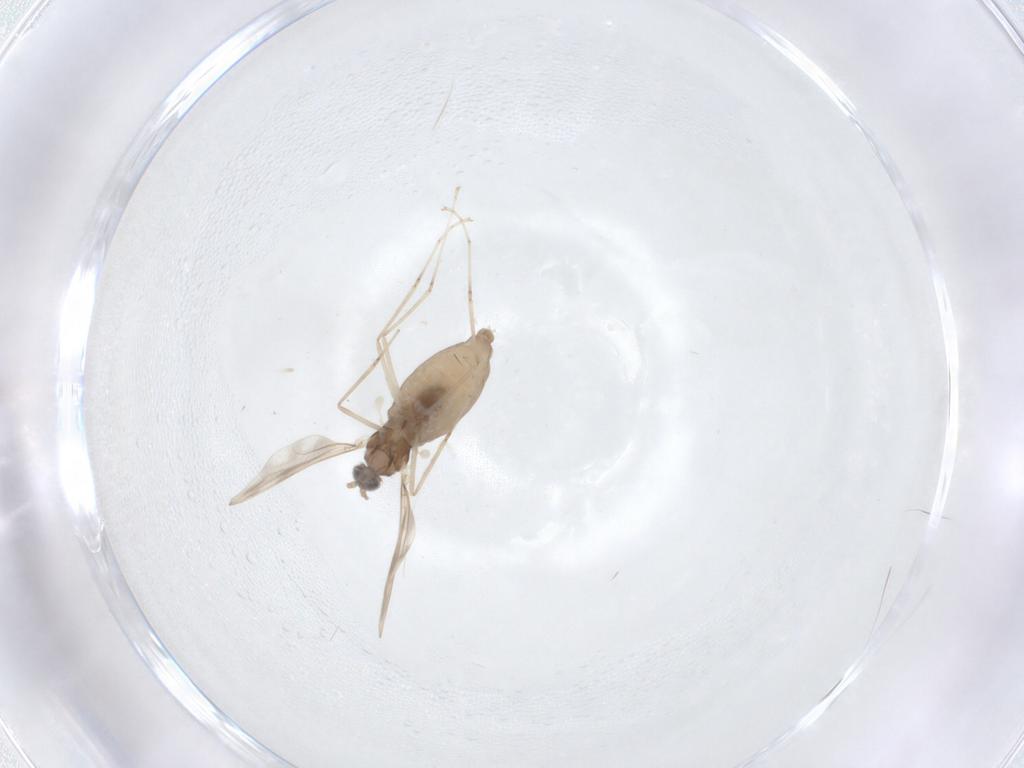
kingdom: Animalia
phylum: Arthropoda
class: Insecta
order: Diptera
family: Cecidomyiidae
